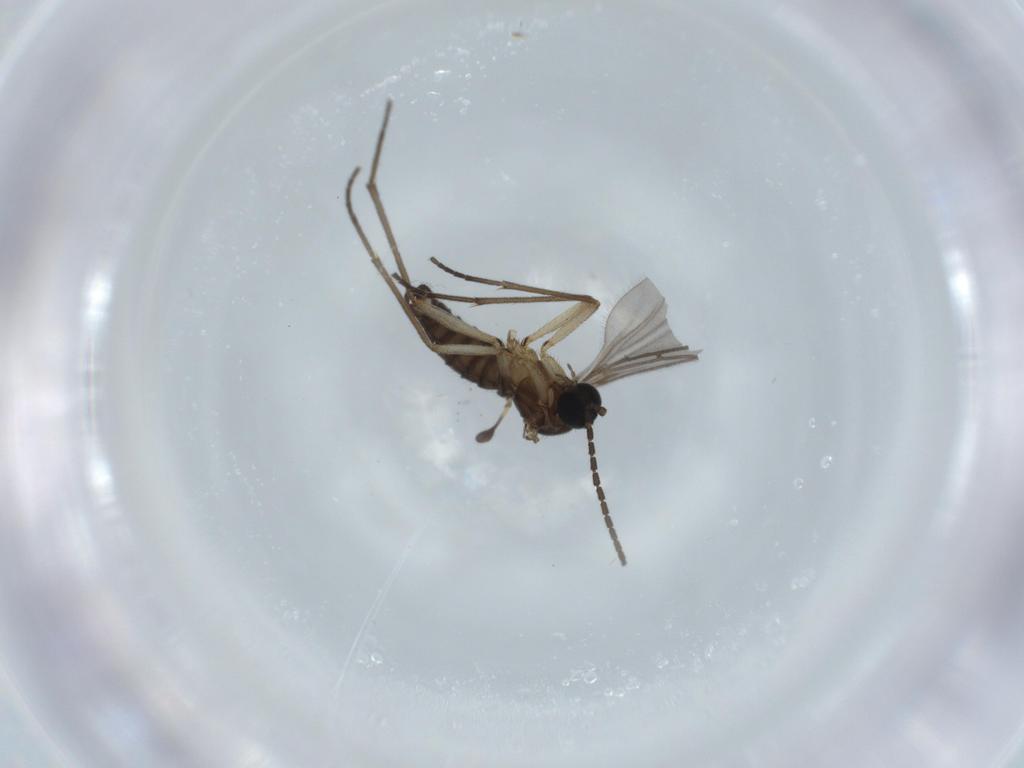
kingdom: Animalia
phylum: Arthropoda
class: Insecta
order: Diptera
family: Sciaridae
